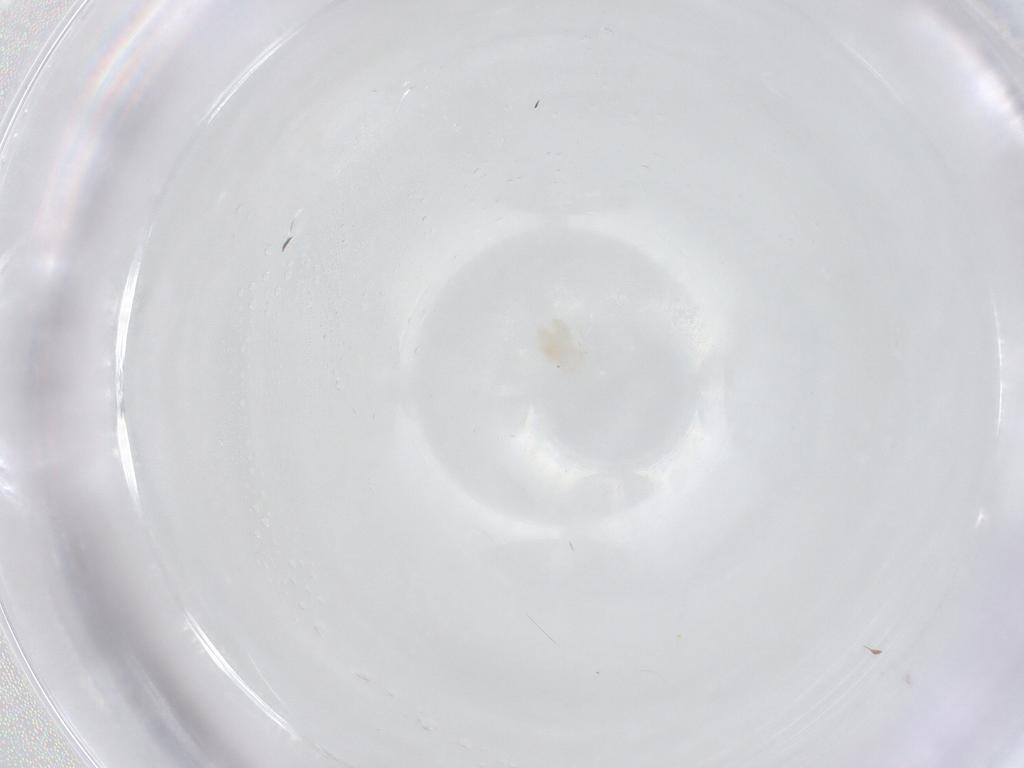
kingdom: Animalia
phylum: Arthropoda
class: Arachnida
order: Trombidiformes
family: Anystidae
